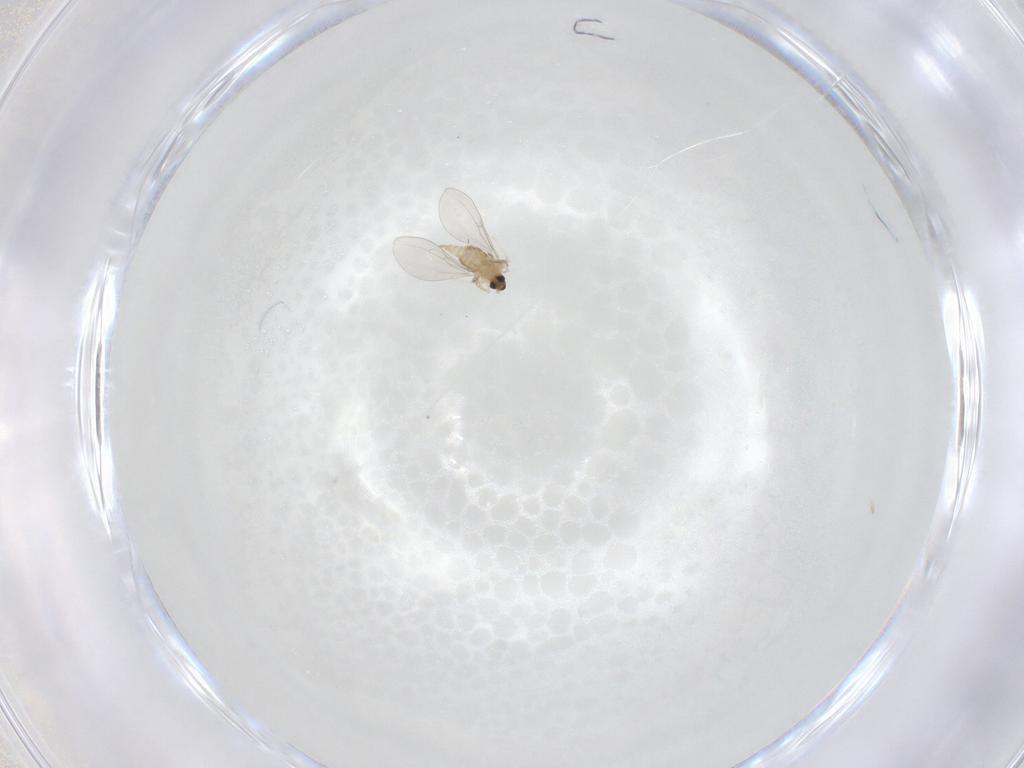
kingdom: Animalia
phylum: Arthropoda
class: Insecta
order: Diptera
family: Cecidomyiidae
